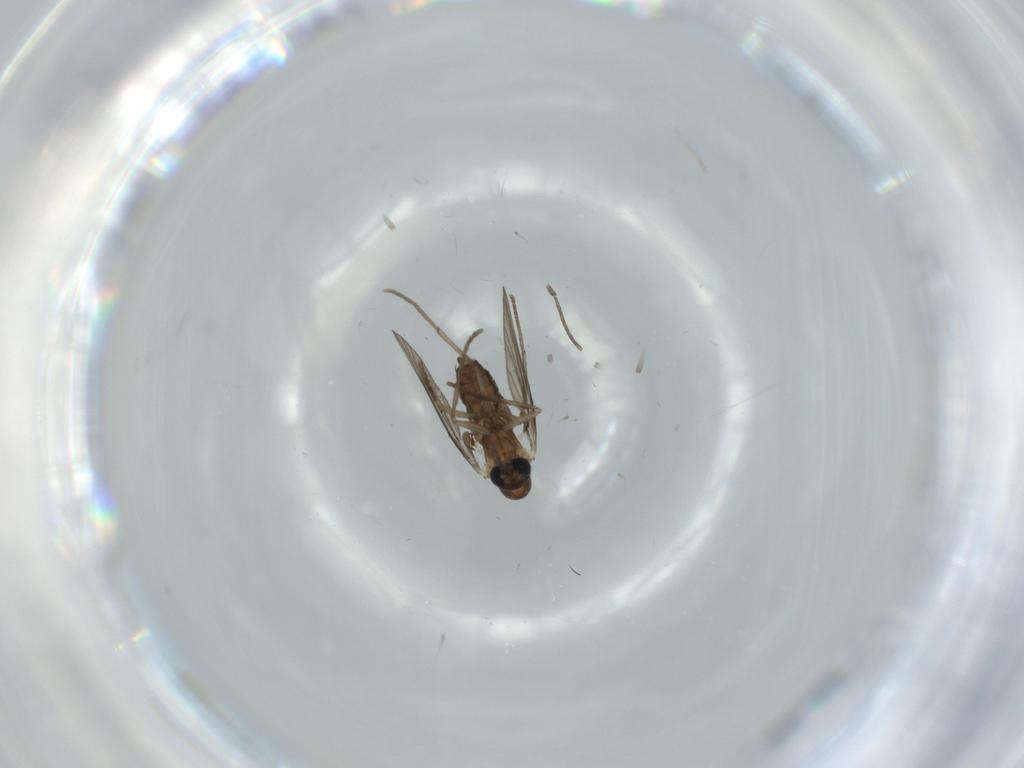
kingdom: Animalia
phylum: Arthropoda
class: Insecta
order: Diptera
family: Psychodidae
